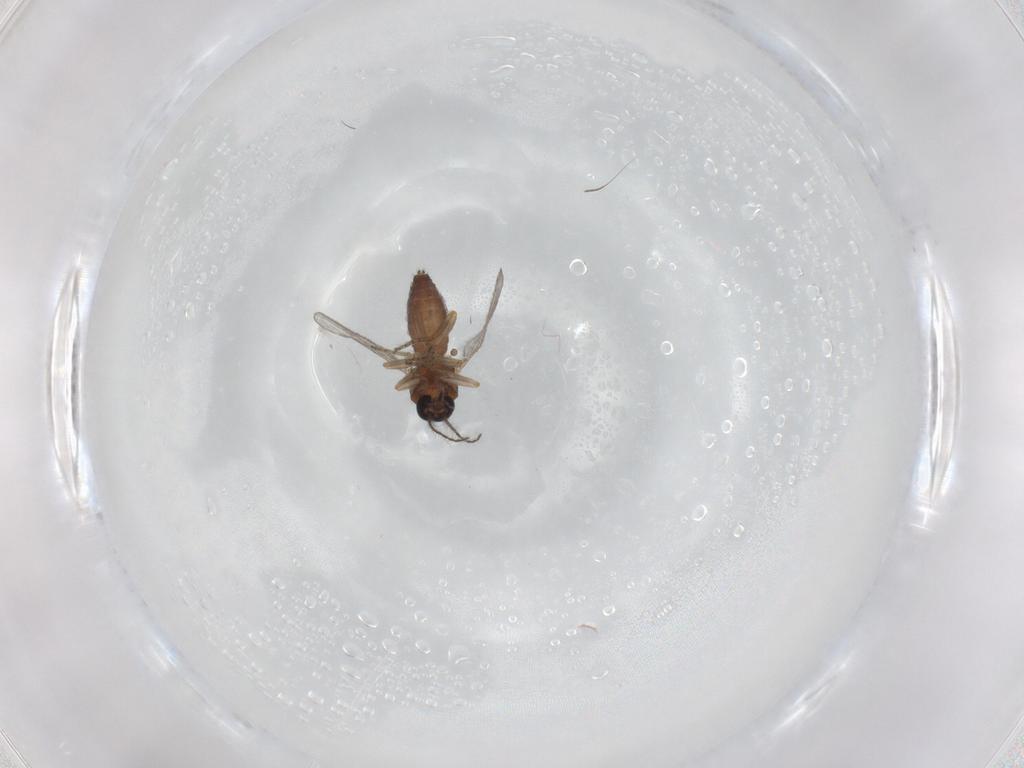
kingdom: Animalia
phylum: Arthropoda
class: Insecta
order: Diptera
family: Ceratopogonidae
